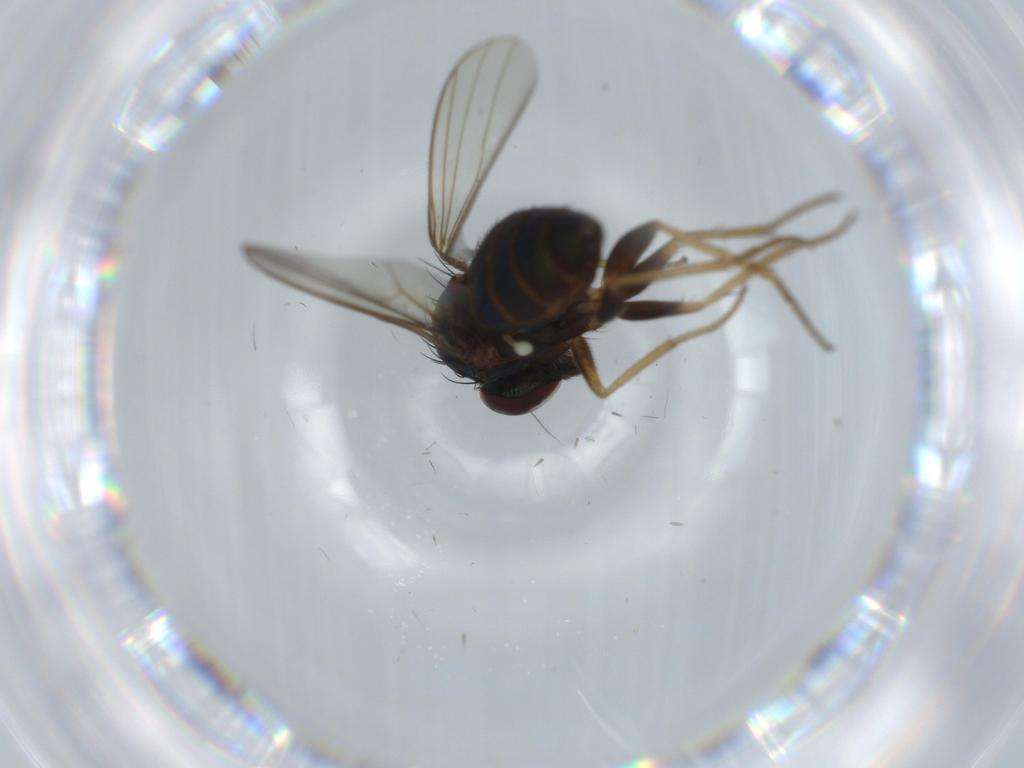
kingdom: Animalia
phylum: Arthropoda
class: Insecta
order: Diptera
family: Dolichopodidae
